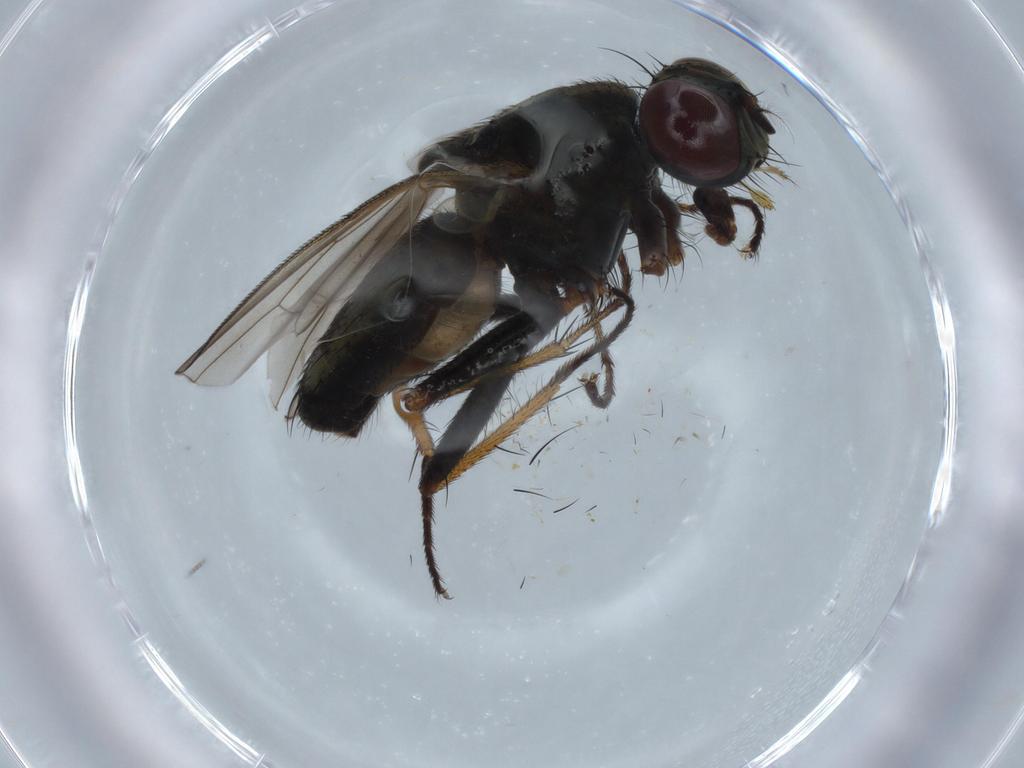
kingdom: Animalia
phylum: Arthropoda
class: Insecta
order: Diptera
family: Muscidae
